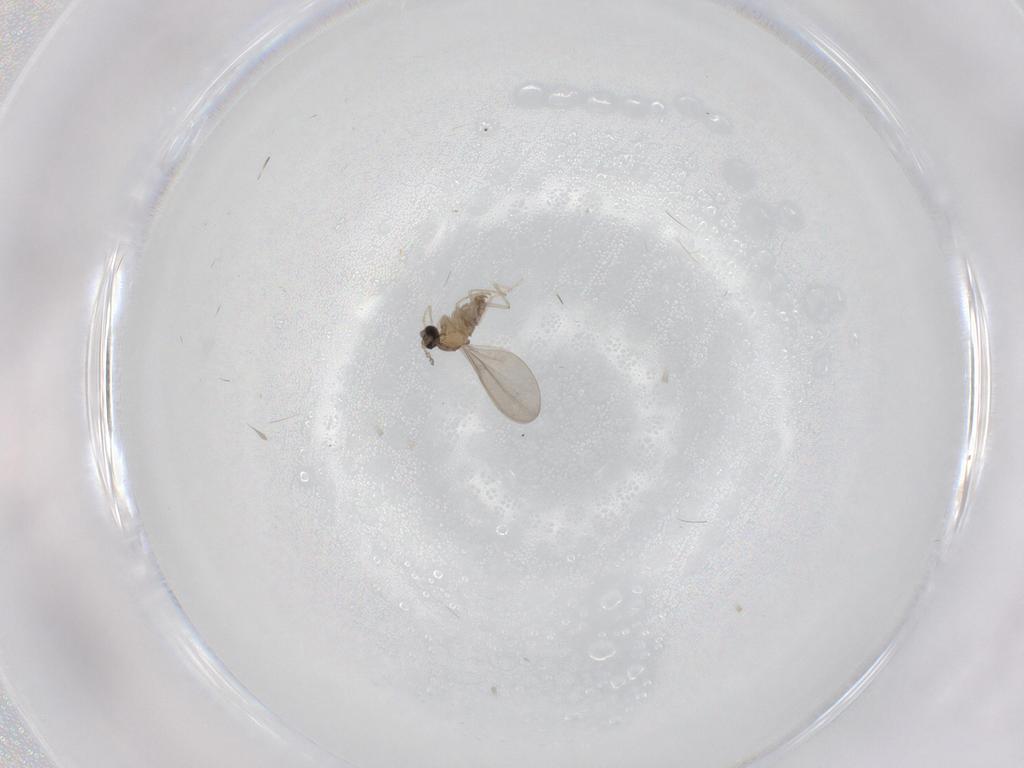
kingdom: Animalia
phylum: Arthropoda
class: Insecta
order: Diptera
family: Cecidomyiidae
